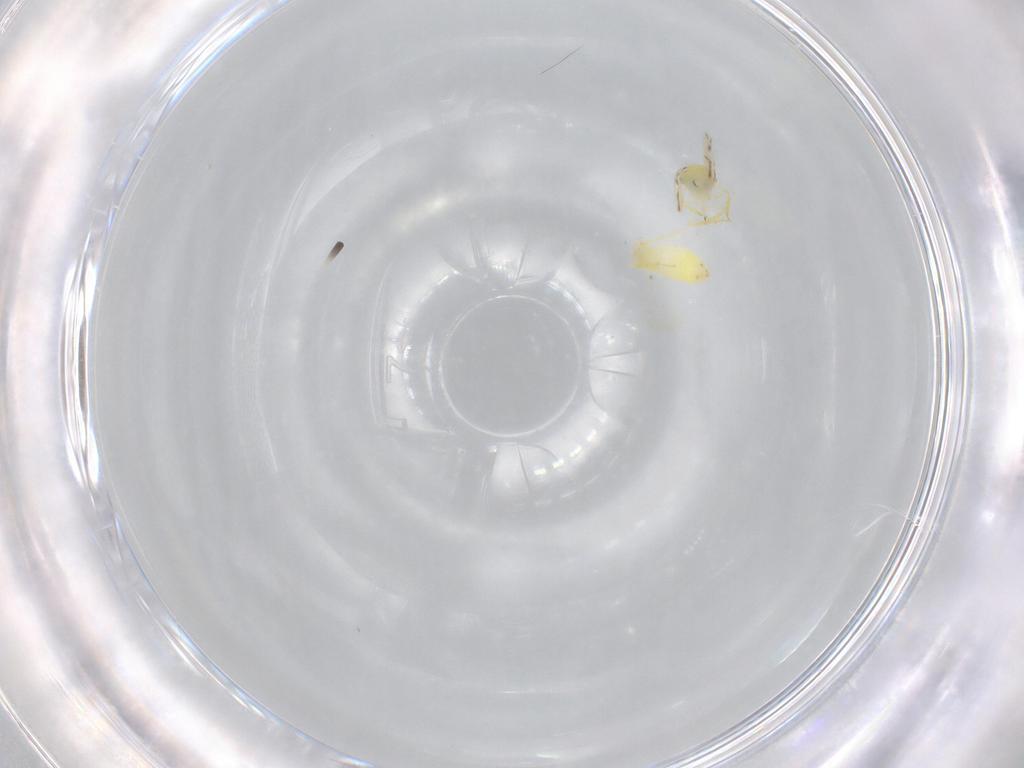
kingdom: Animalia
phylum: Arthropoda
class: Insecta
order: Hemiptera
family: Aleyrodidae
